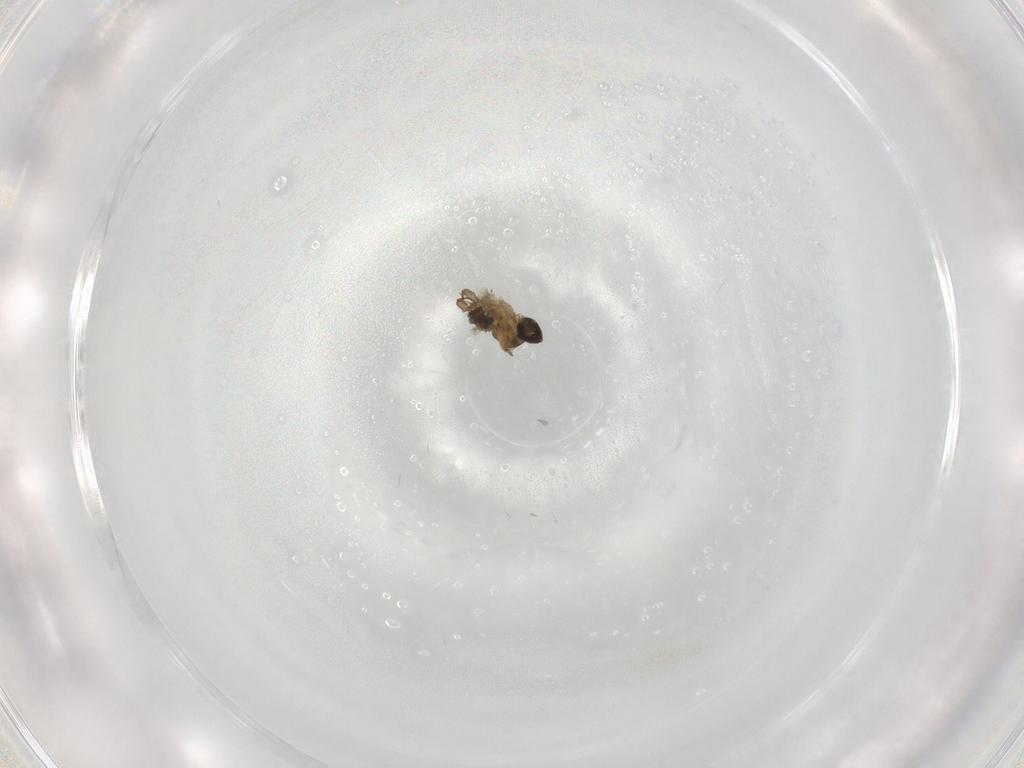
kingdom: Animalia
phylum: Arthropoda
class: Insecta
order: Diptera
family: Cecidomyiidae
